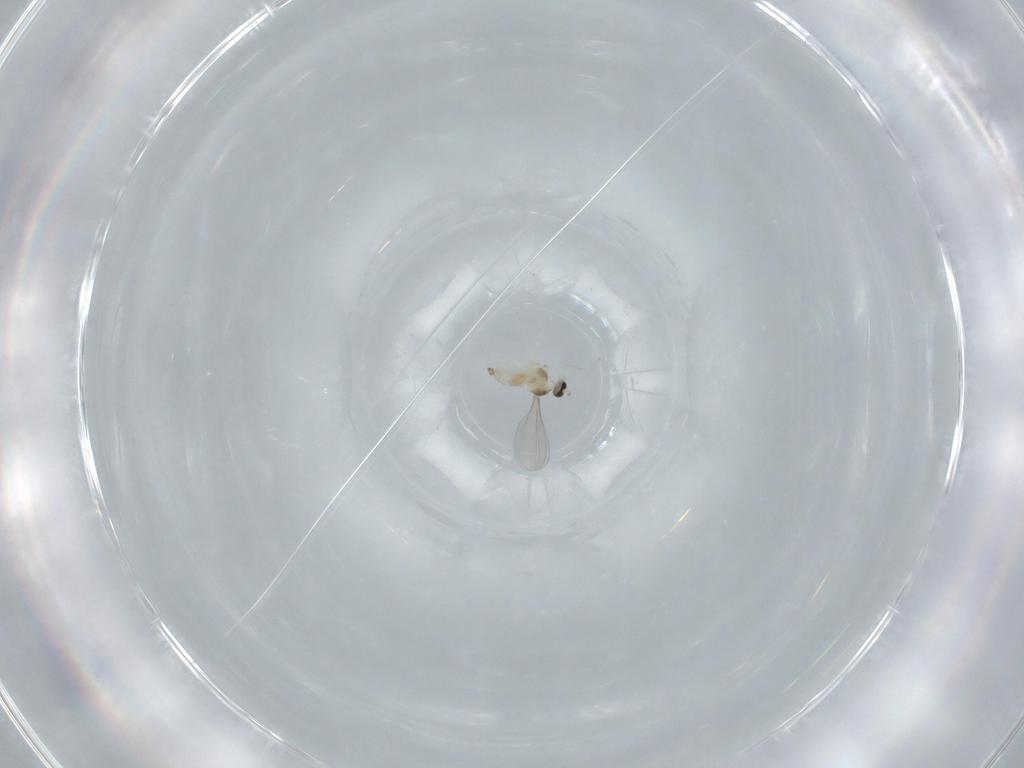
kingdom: Animalia
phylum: Arthropoda
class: Insecta
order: Diptera
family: Cecidomyiidae
